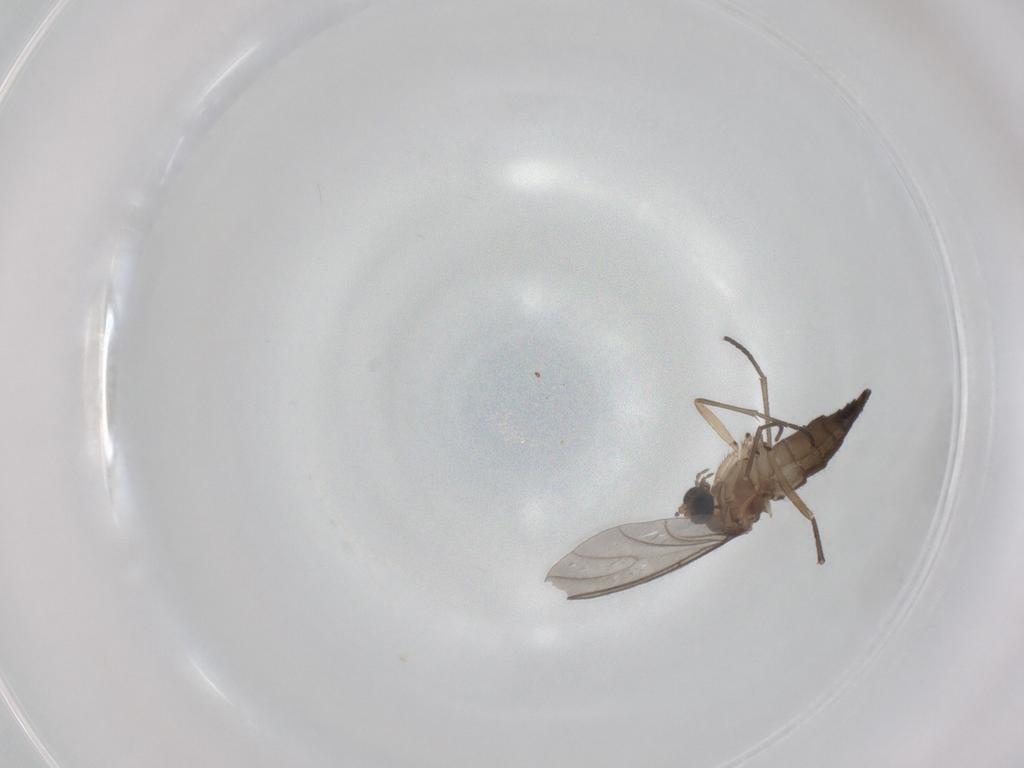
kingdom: Animalia
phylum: Arthropoda
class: Insecta
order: Diptera
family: Sciaridae
